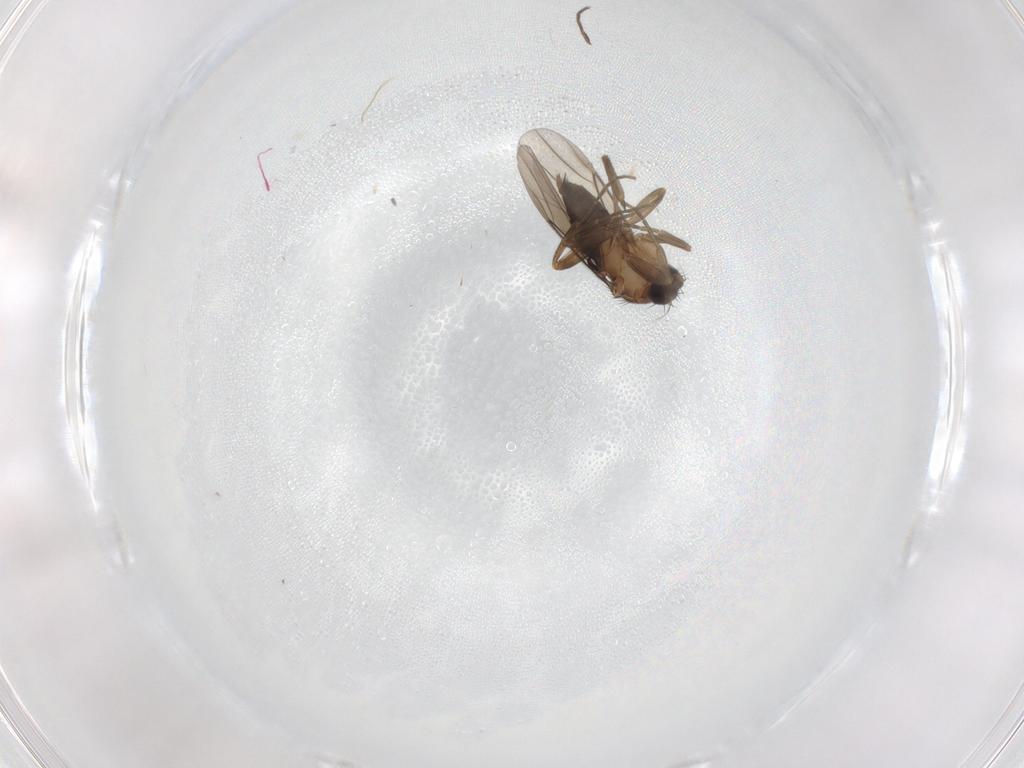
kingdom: Animalia
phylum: Arthropoda
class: Insecta
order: Diptera
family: Phoridae
